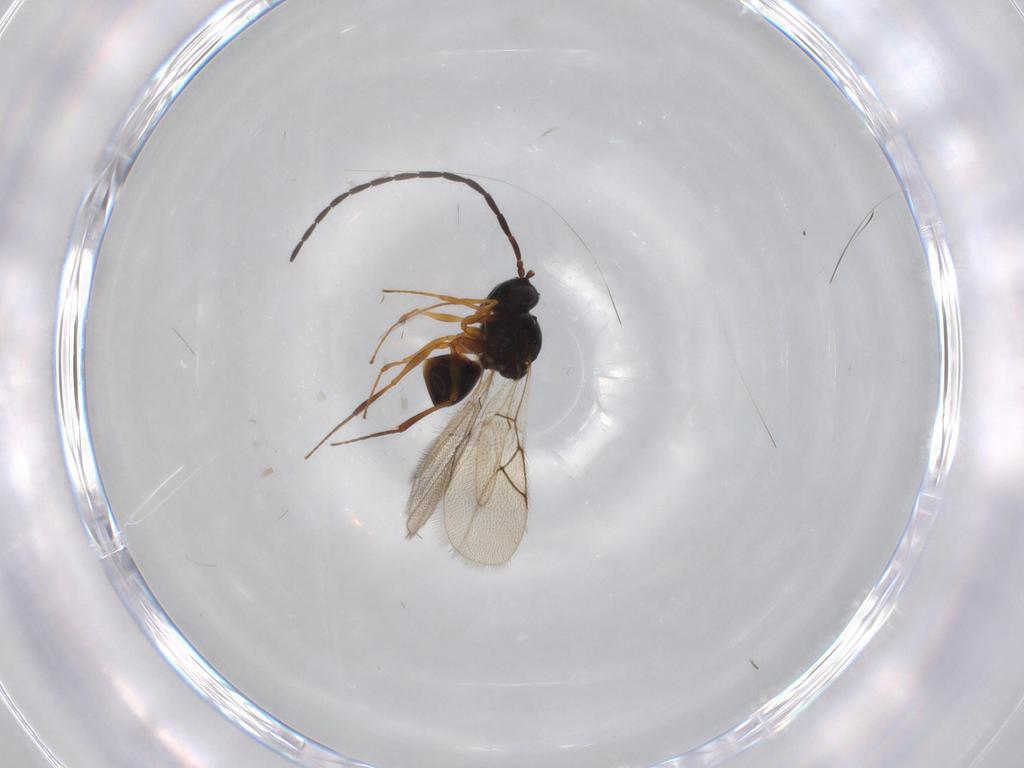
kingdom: Animalia
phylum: Arthropoda
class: Insecta
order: Hymenoptera
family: Figitidae
